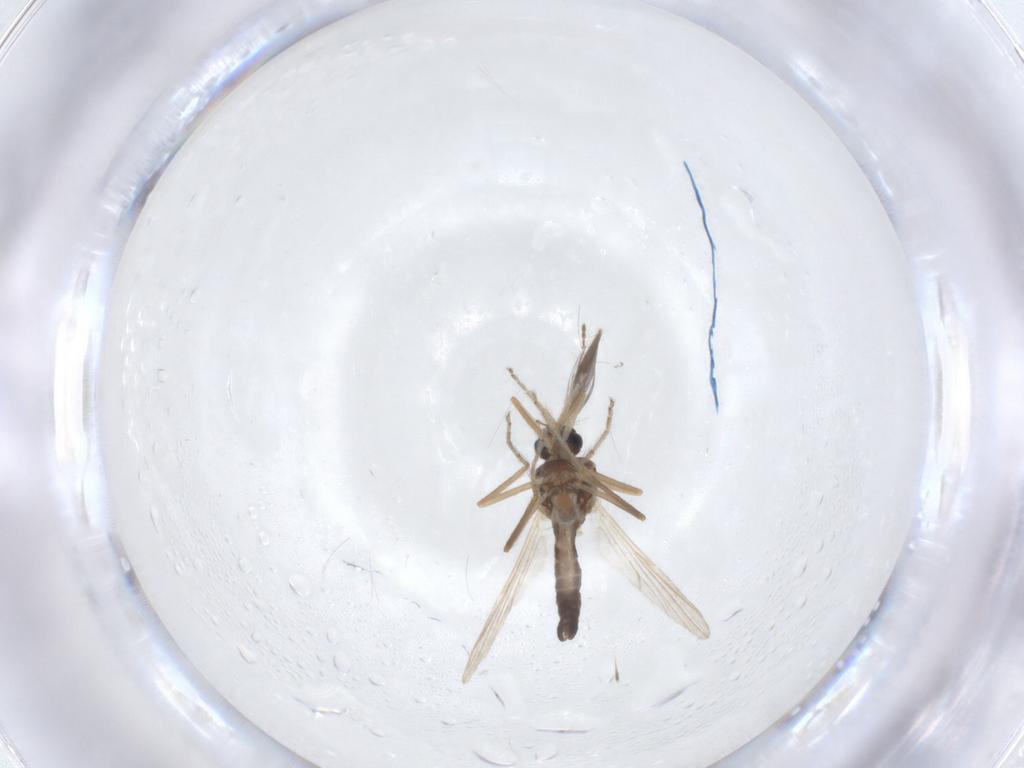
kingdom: Animalia
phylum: Arthropoda
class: Insecta
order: Diptera
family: Ceratopogonidae
